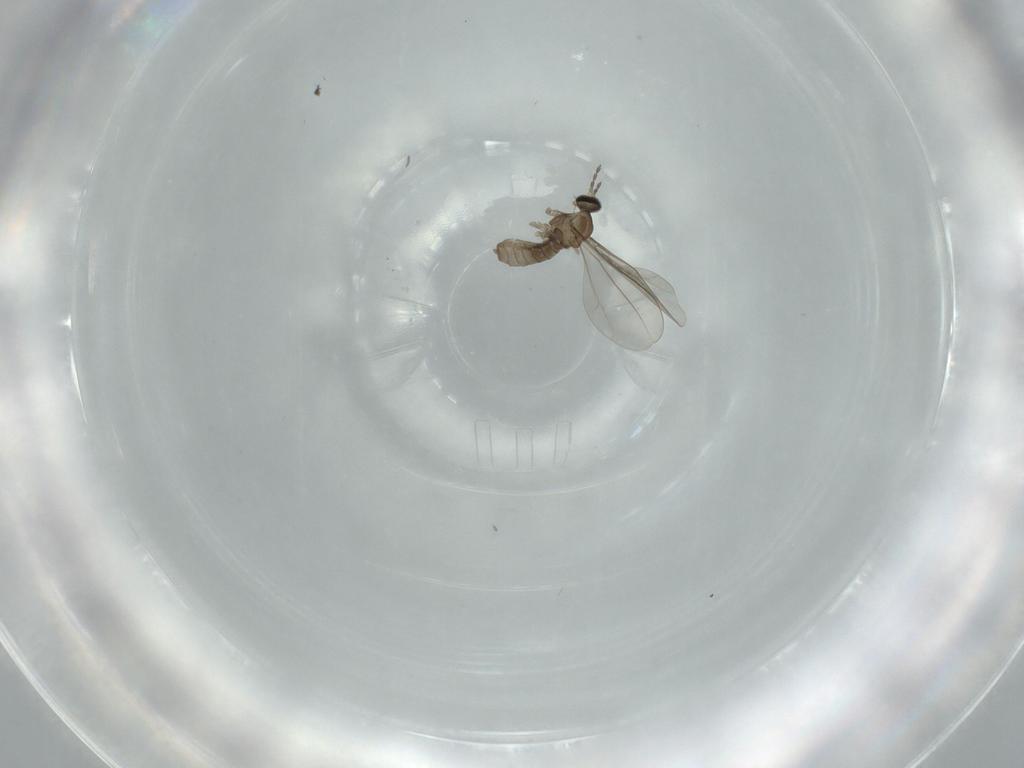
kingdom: Animalia
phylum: Arthropoda
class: Insecta
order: Diptera
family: Cecidomyiidae
